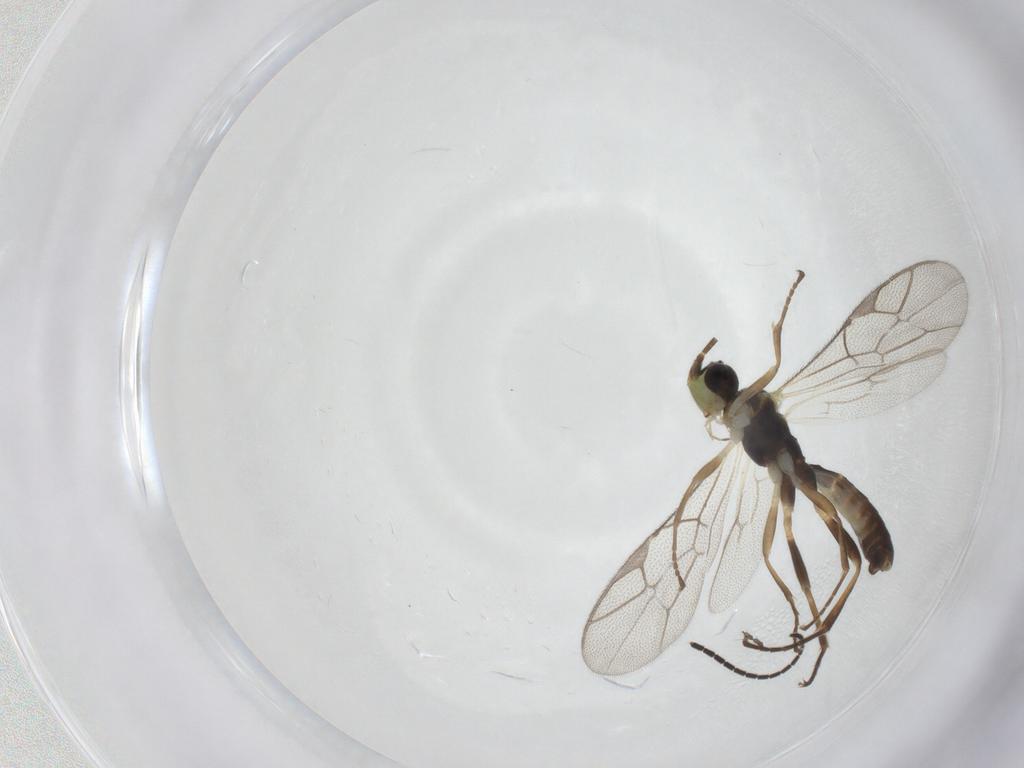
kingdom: Animalia
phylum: Arthropoda
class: Insecta
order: Hymenoptera
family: Ichneumonidae
